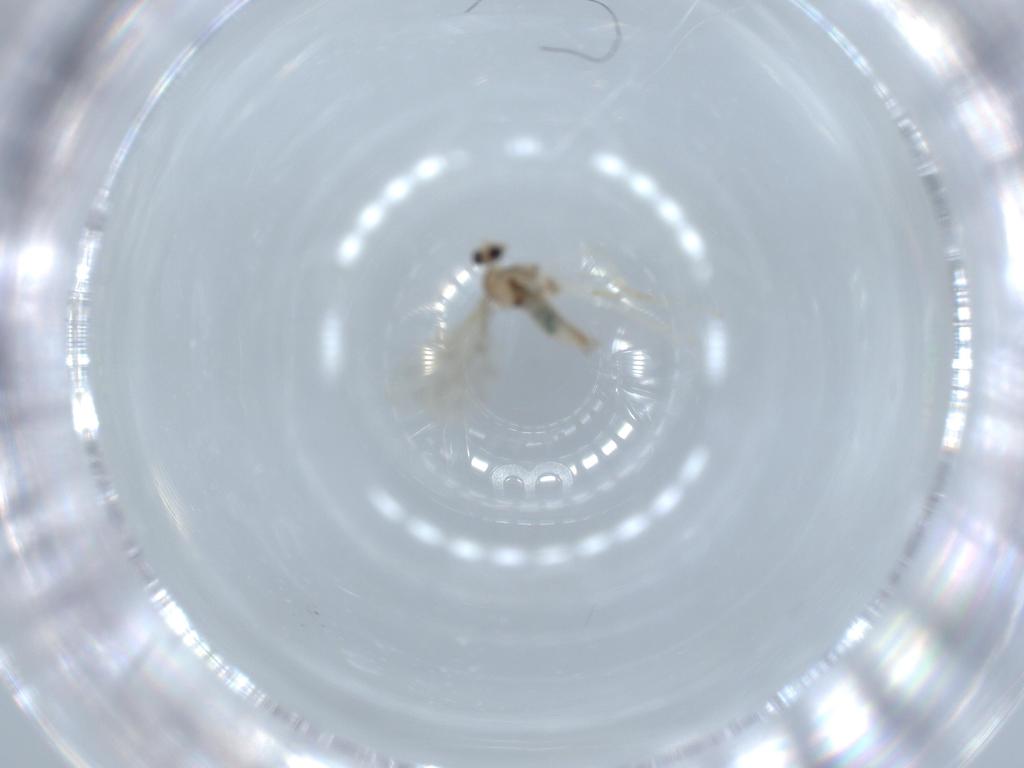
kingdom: Animalia
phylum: Arthropoda
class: Insecta
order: Diptera
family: Cecidomyiidae
